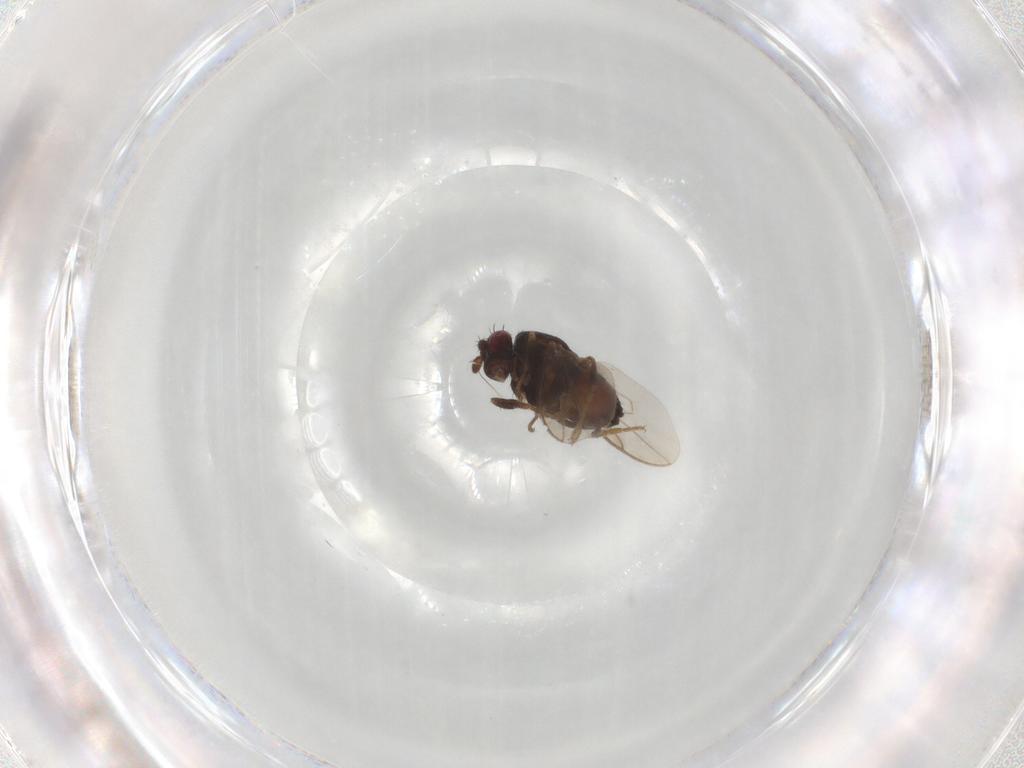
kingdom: Animalia
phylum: Arthropoda
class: Insecta
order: Diptera
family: Sphaeroceridae
